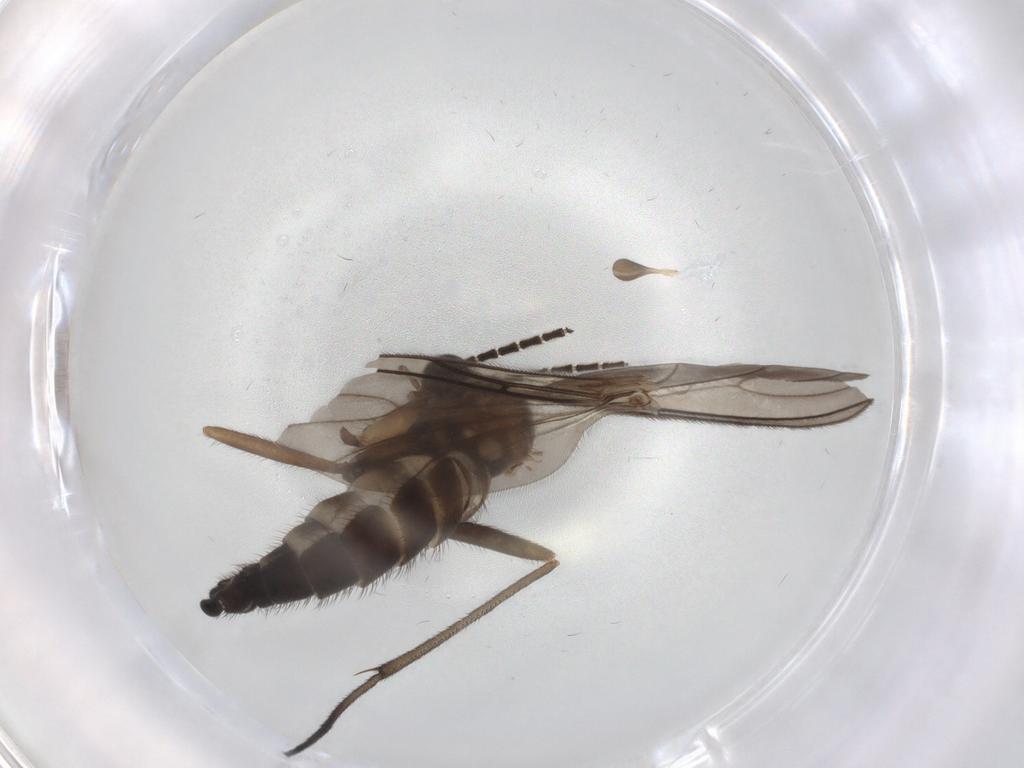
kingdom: Animalia
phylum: Arthropoda
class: Insecta
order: Diptera
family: Sciaridae
